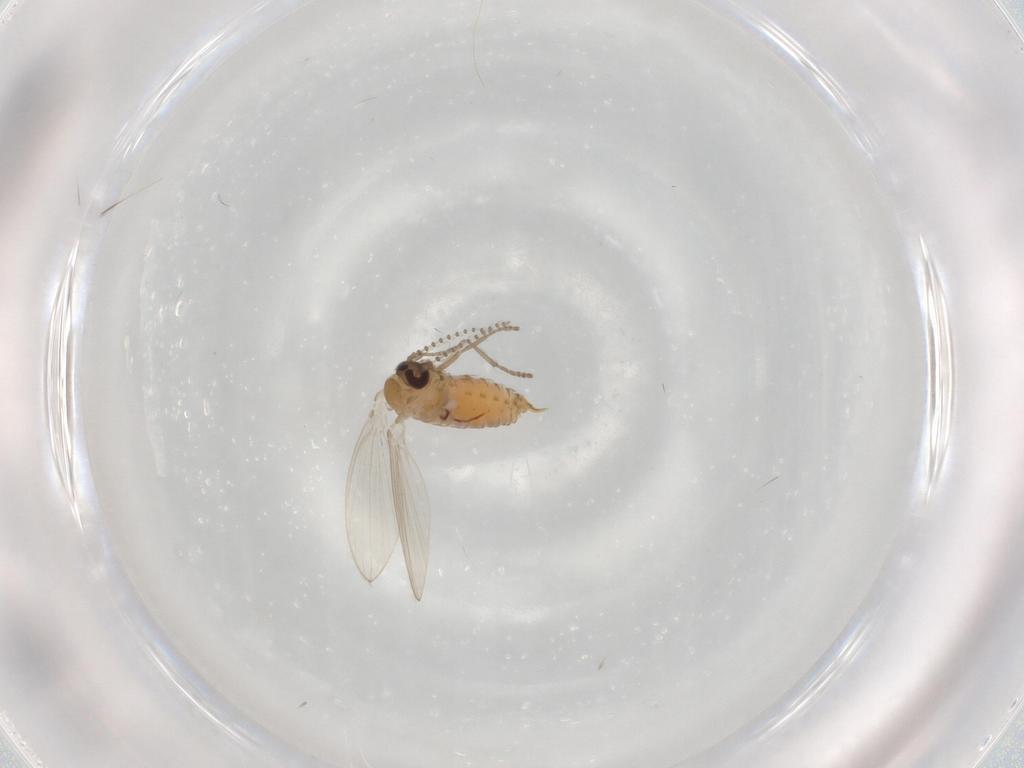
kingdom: Animalia
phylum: Arthropoda
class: Insecta
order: Diptera
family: Psychodidae
